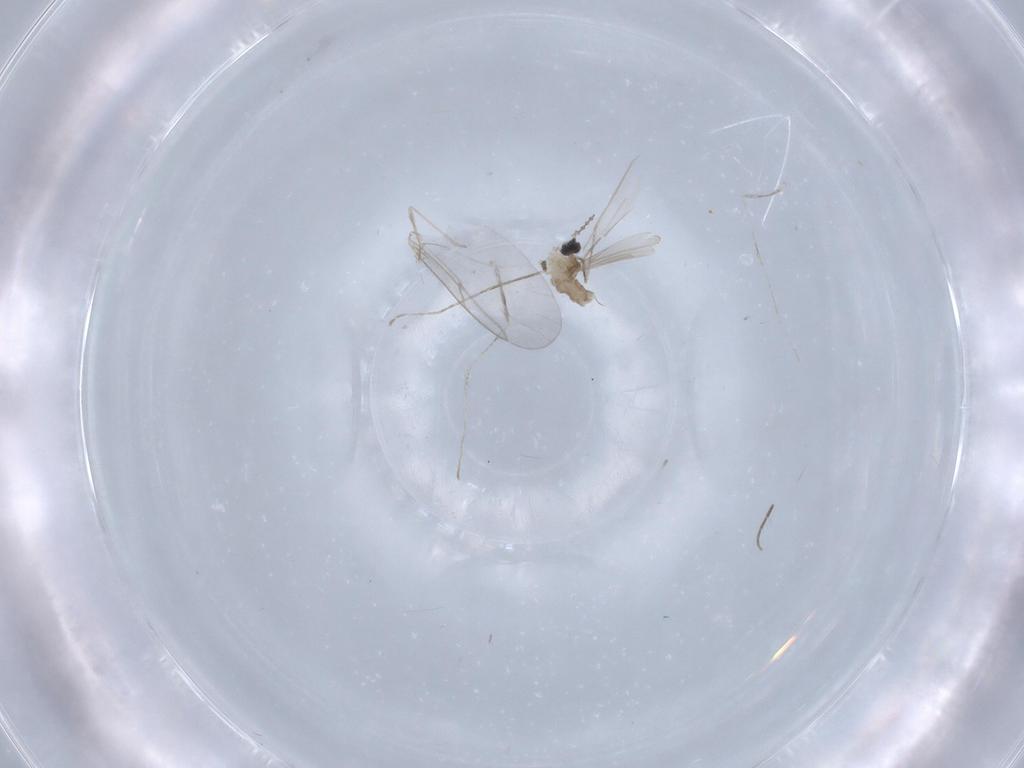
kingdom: Animalia
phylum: Arthropoda
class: Insecta
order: Diptera
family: Cecidomyiidae
